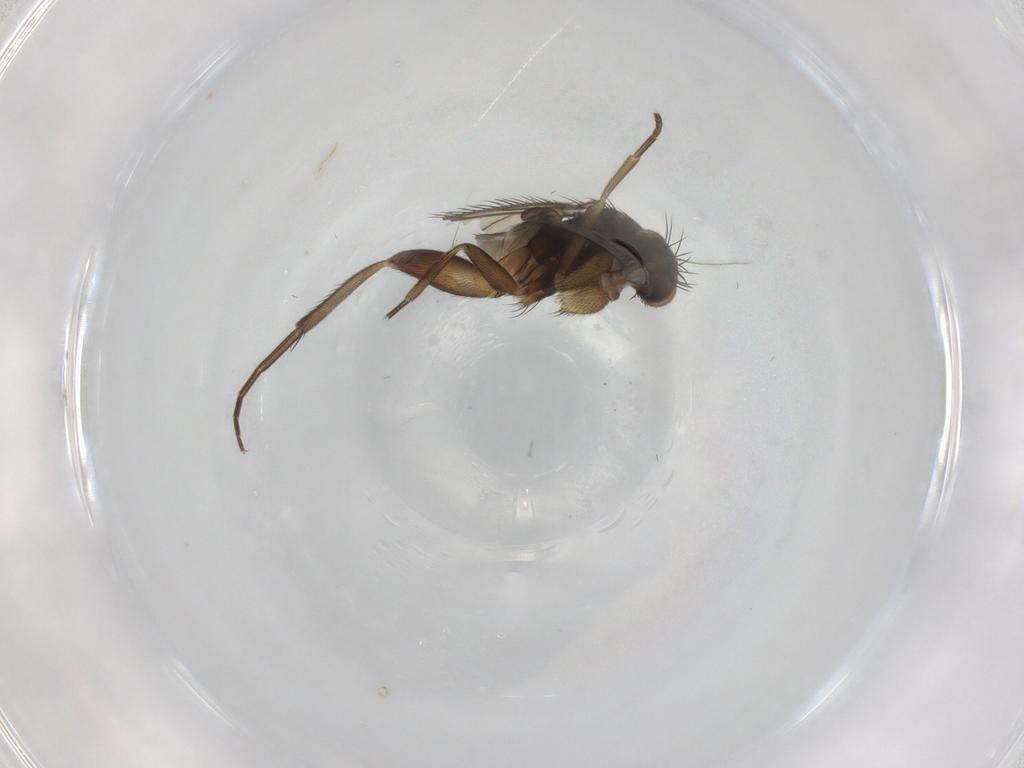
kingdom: Animalia
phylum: Arthropoda
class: Insecta
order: Diptera
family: Phoridae
